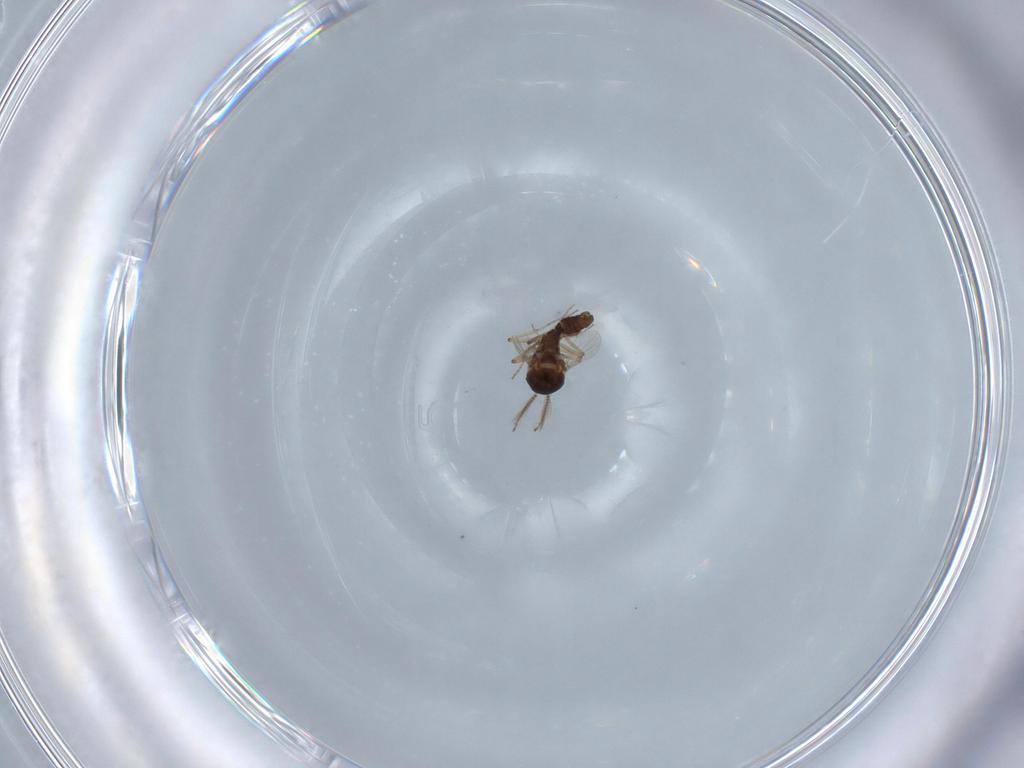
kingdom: Animalia
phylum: Arthropoda
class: Insecta
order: Diptera
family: Ceratopogonidae
